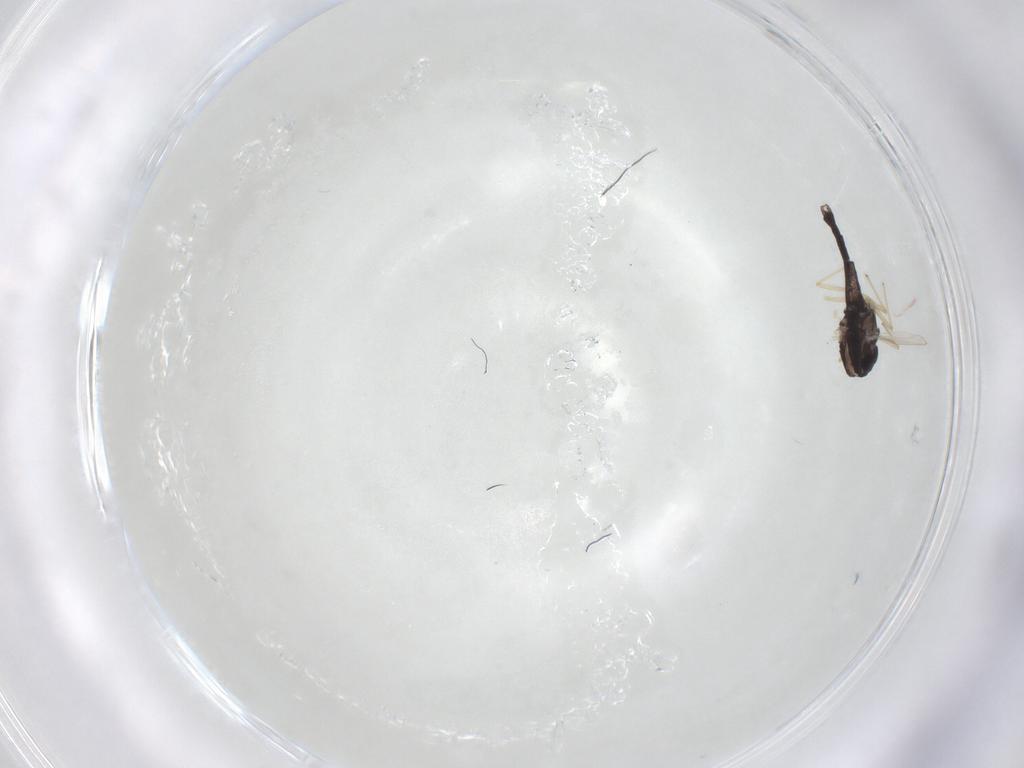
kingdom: Animalia
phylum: Arthropoda
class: Insecta
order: Diptera
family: Chironomidae
